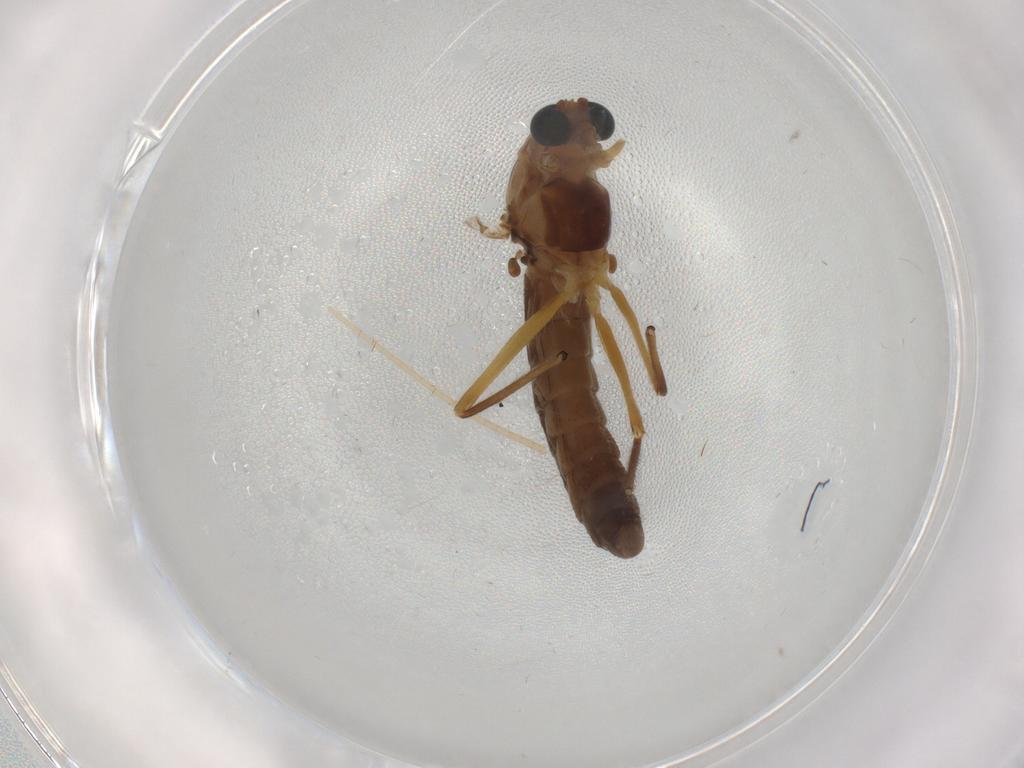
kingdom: Animalia
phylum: Arthropoda
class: Insecta
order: Diptera
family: Chironomidae
